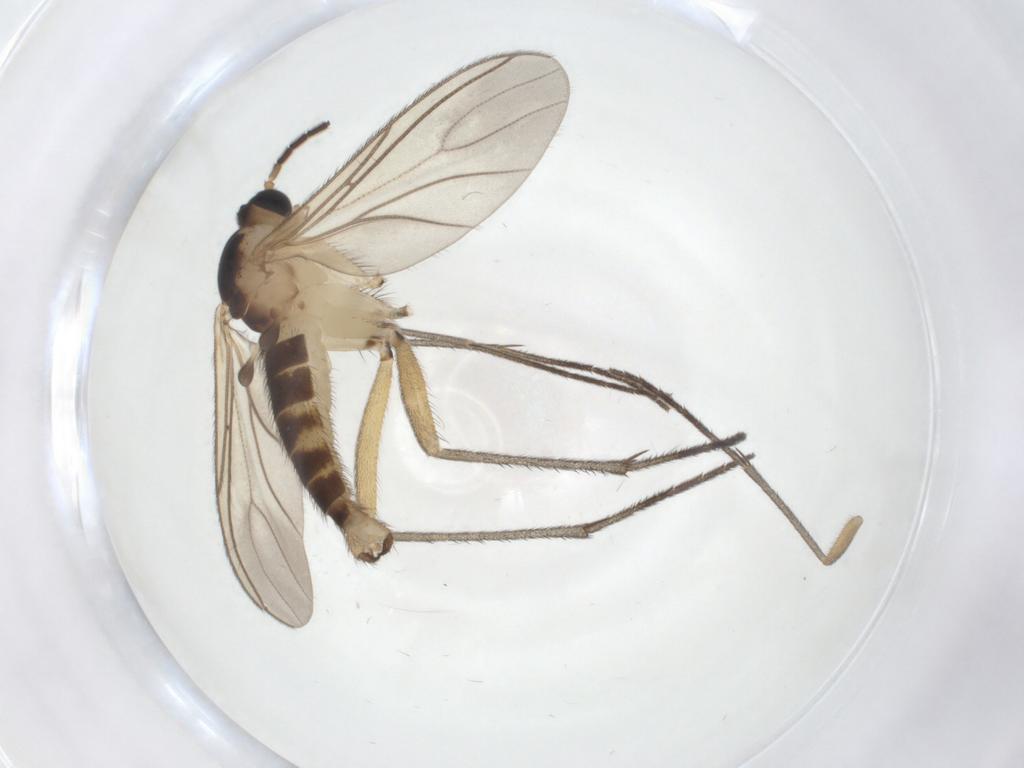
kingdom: Animalia
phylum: Arthropoda
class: Insecta
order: Diptera
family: Sciaridae
